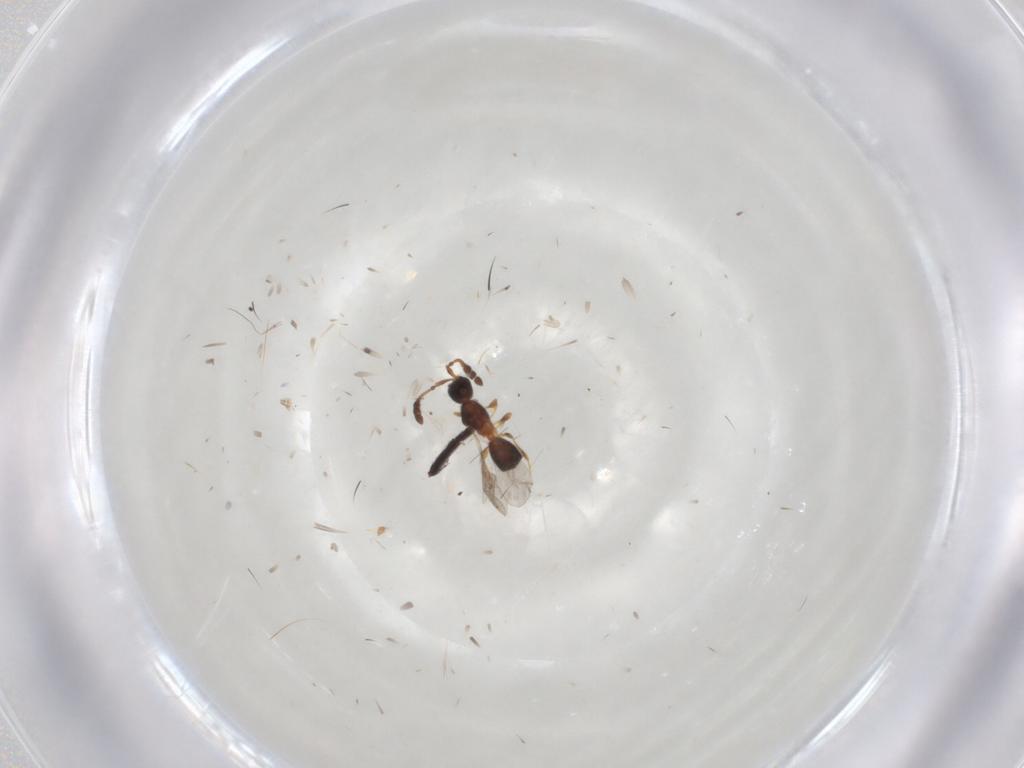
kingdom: Animalia
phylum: Arthropoda
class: Insecta
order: Hymenoptera
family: Diapriidae
